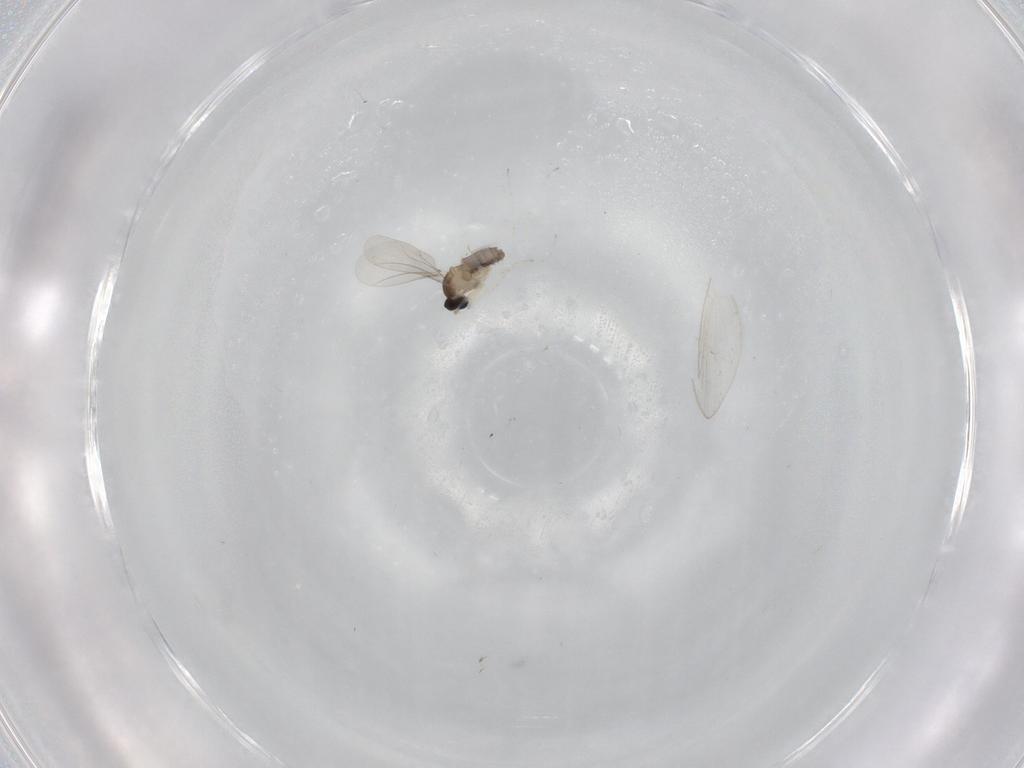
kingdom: Animalia
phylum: Arthropoda
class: Insecta
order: Diptera
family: Cecidomyiidae
